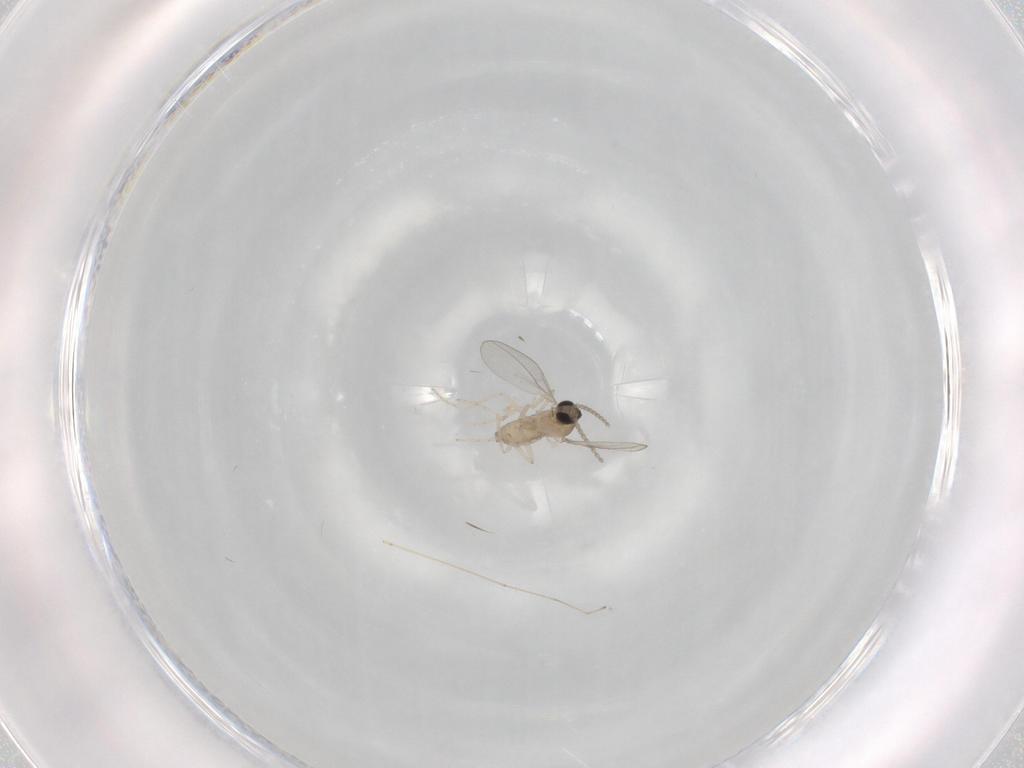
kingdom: Animalia
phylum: Arthropoda
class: Insecta
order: Diptera
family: Cecidomyiidae
